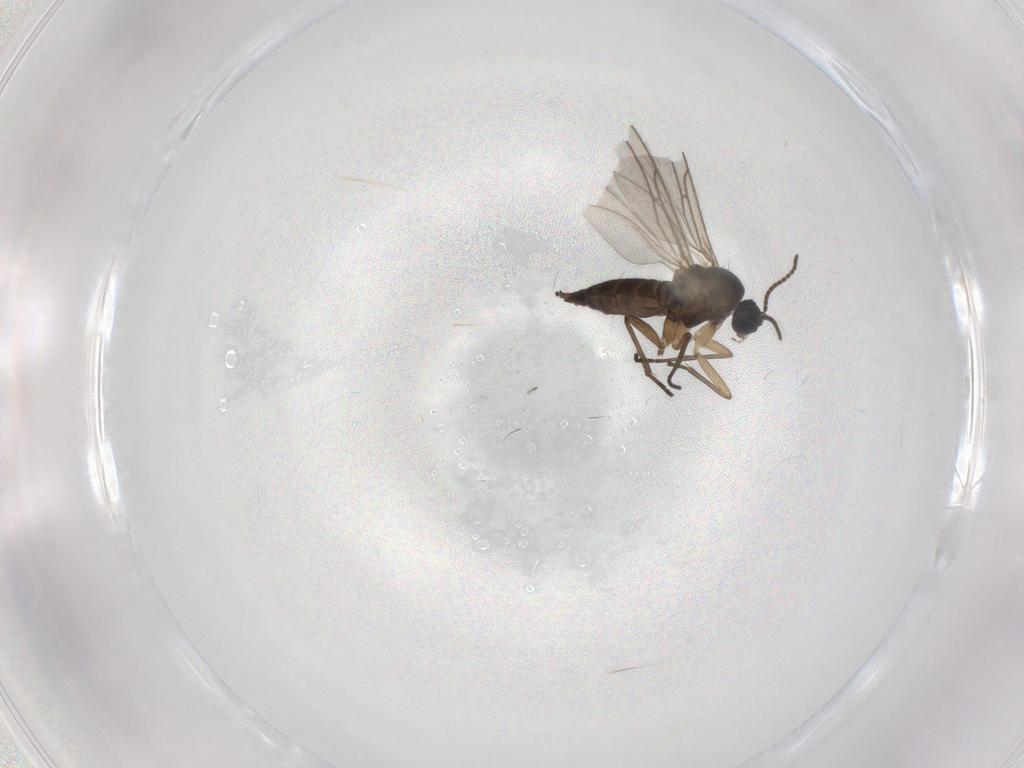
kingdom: Animalia
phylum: Arthropoda
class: Insecta
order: Diptera
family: Sciaridae
